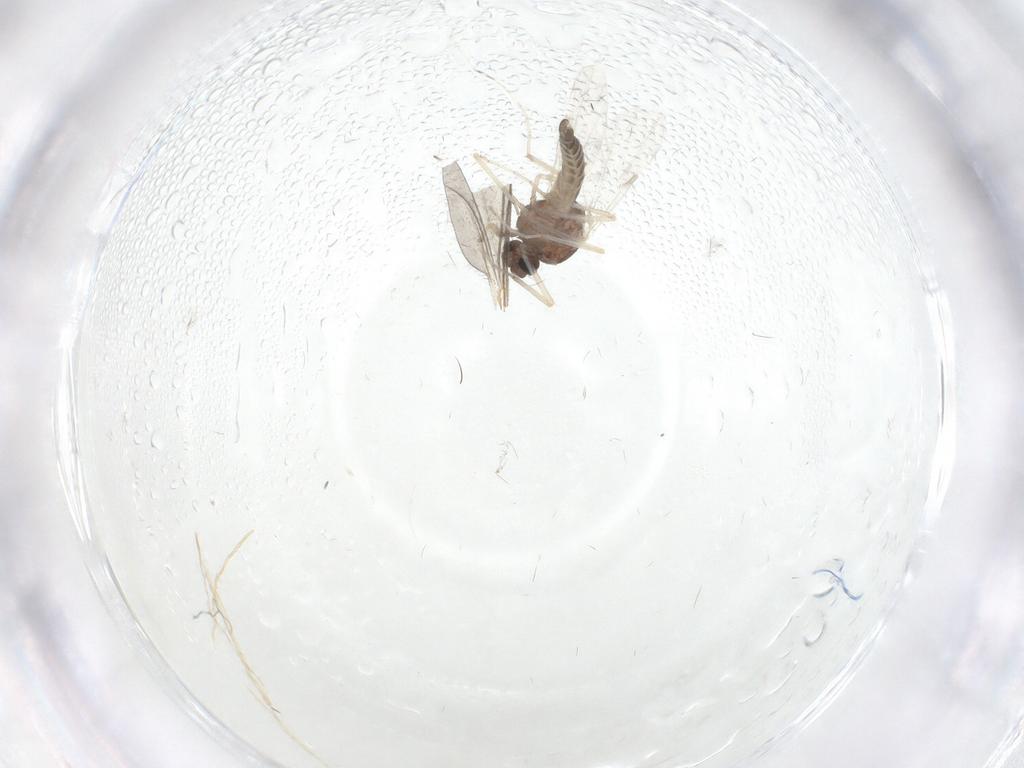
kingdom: Animalia
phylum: Arthropoda
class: Insecta
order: Diptera
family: Ceratopogonidae
